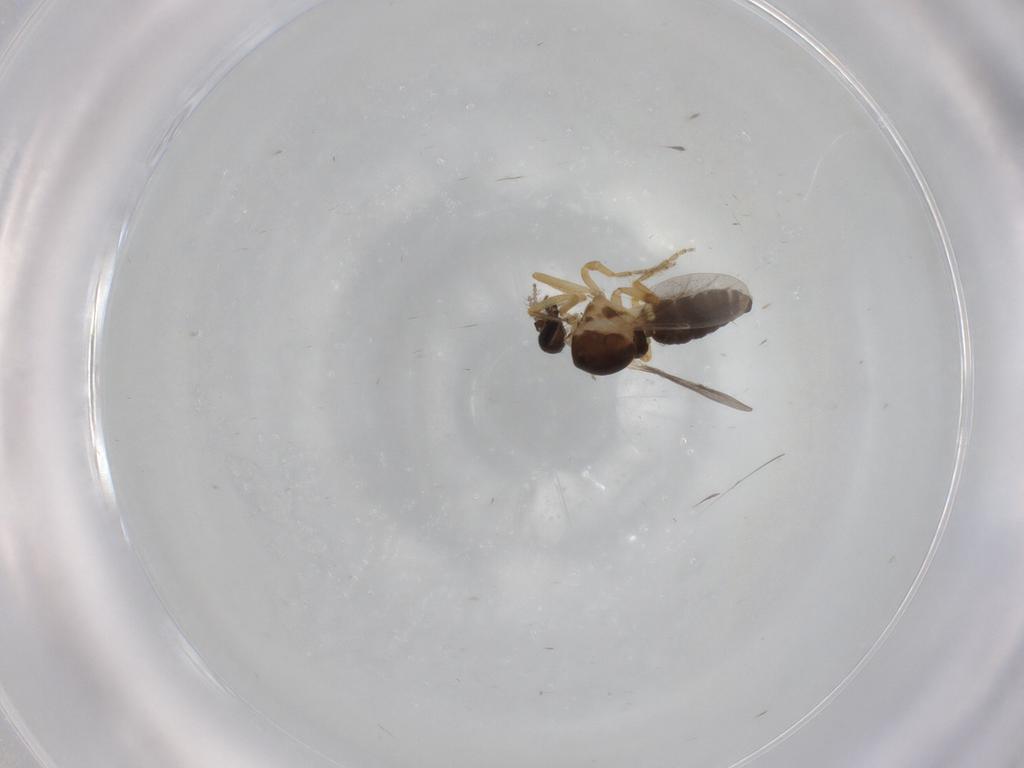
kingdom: Animalia
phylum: Arthropoda
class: Insecta
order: Diptera
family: Ceratopogonidae
